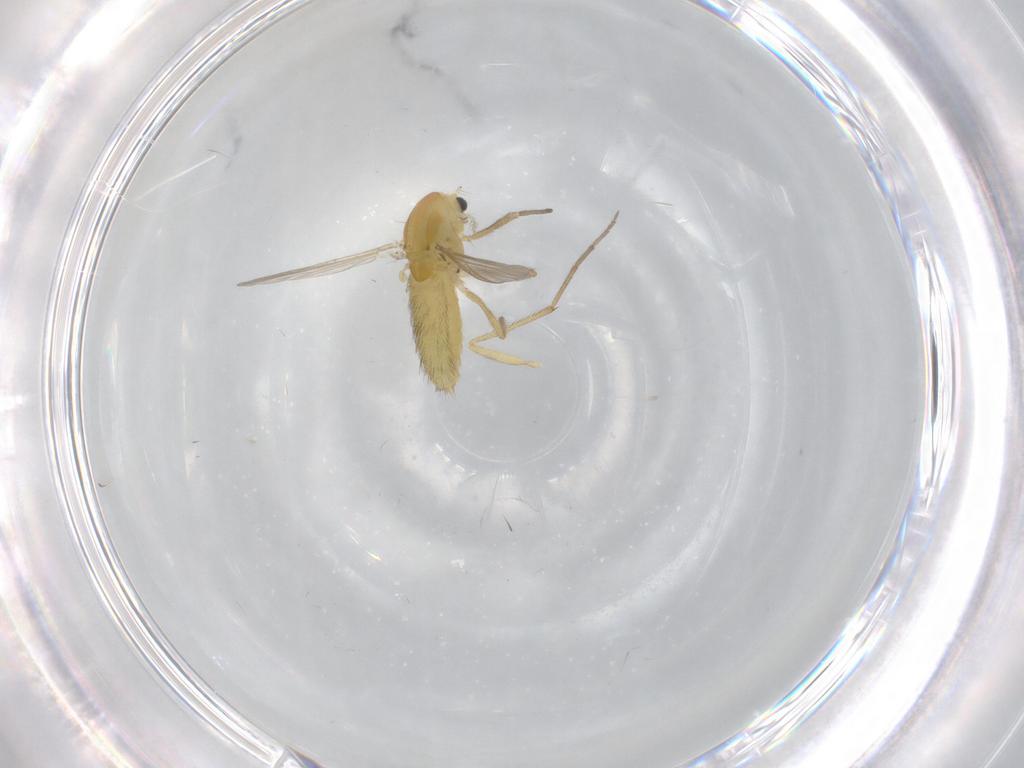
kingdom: Animalia
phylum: Arthropoda
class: Insecta
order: Diptera
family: Chironomidae
